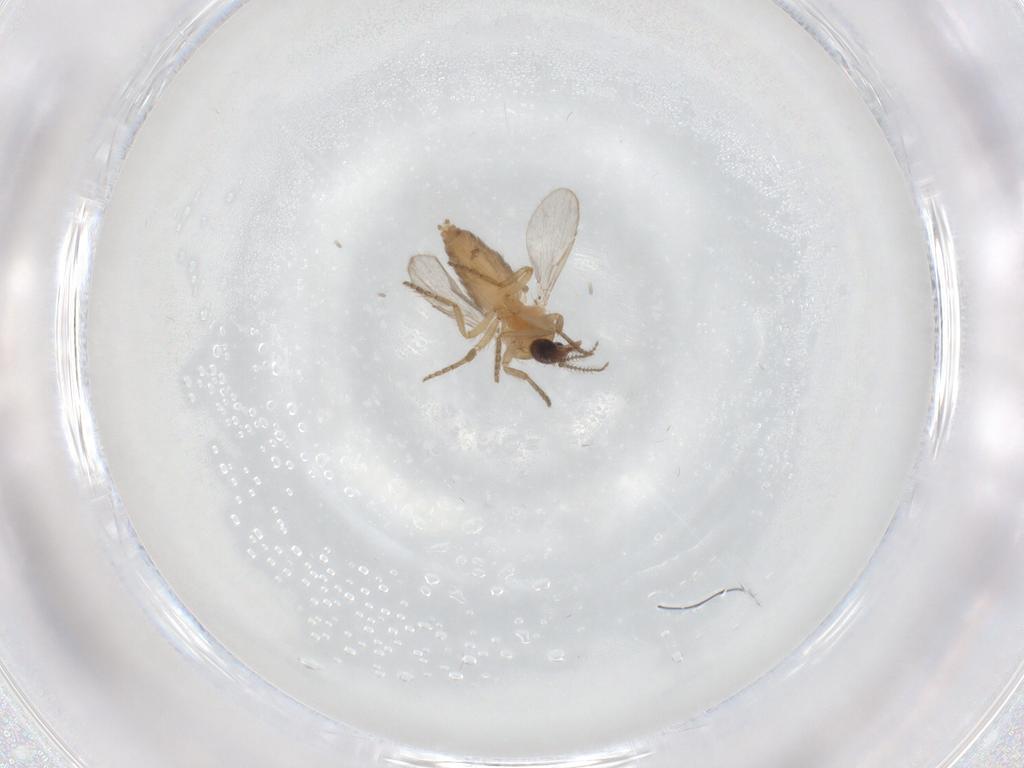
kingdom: Animalia
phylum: Arthropoda
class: Insecta
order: Diptera
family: Ceratopogonidae
